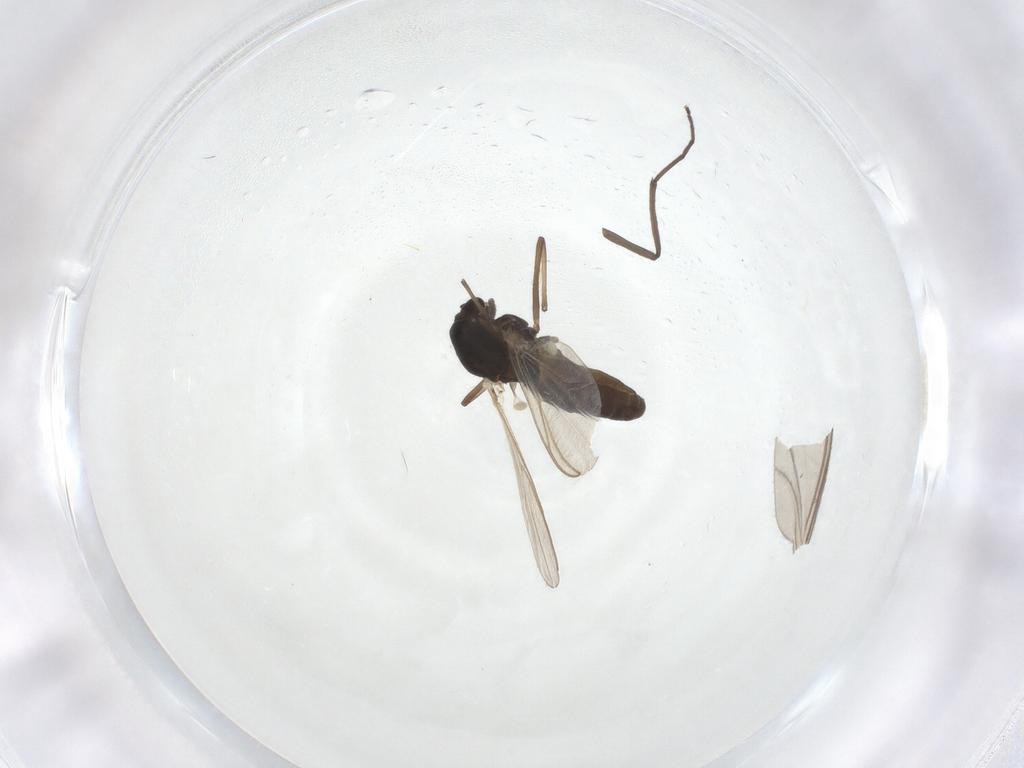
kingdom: Animalia
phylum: Arthropoda
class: Insecta
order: Diptera
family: Chironomidae
